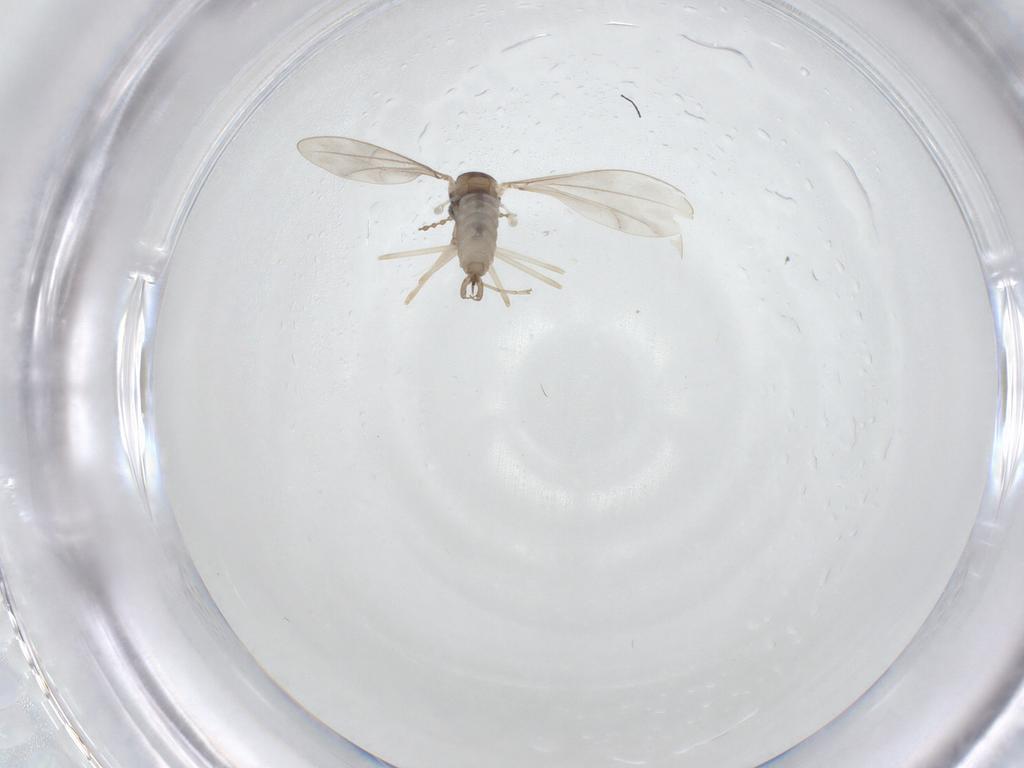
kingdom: Animalia
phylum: Arthropoda
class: Insecta
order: Diptera
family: Cecidomyiidae
